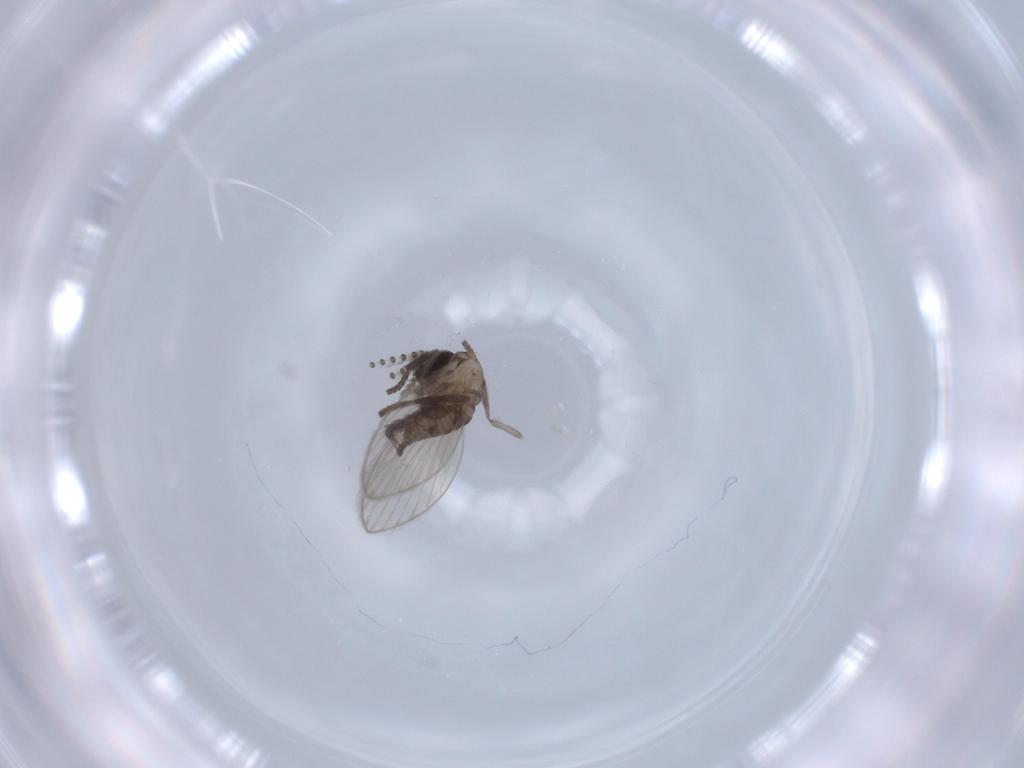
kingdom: Animalia
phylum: Arthropoda
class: Insecta
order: Diptera
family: Psychodidae
